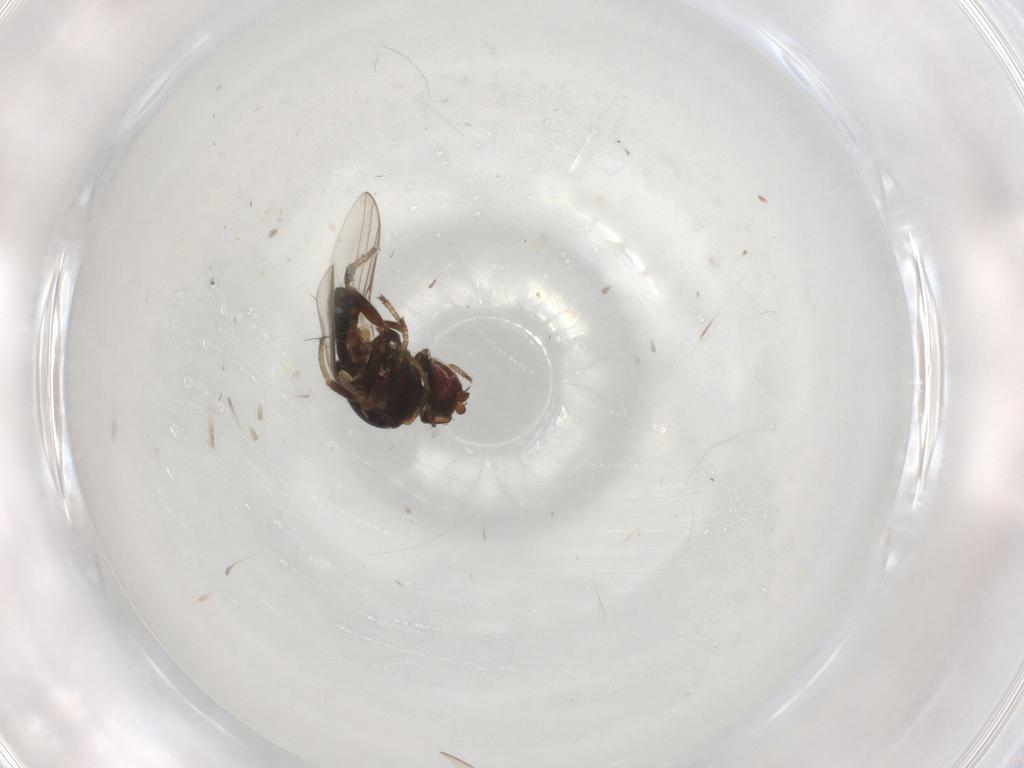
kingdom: Animalia
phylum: Arthropoda
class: Insecta
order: Diptera
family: Chloropidae
